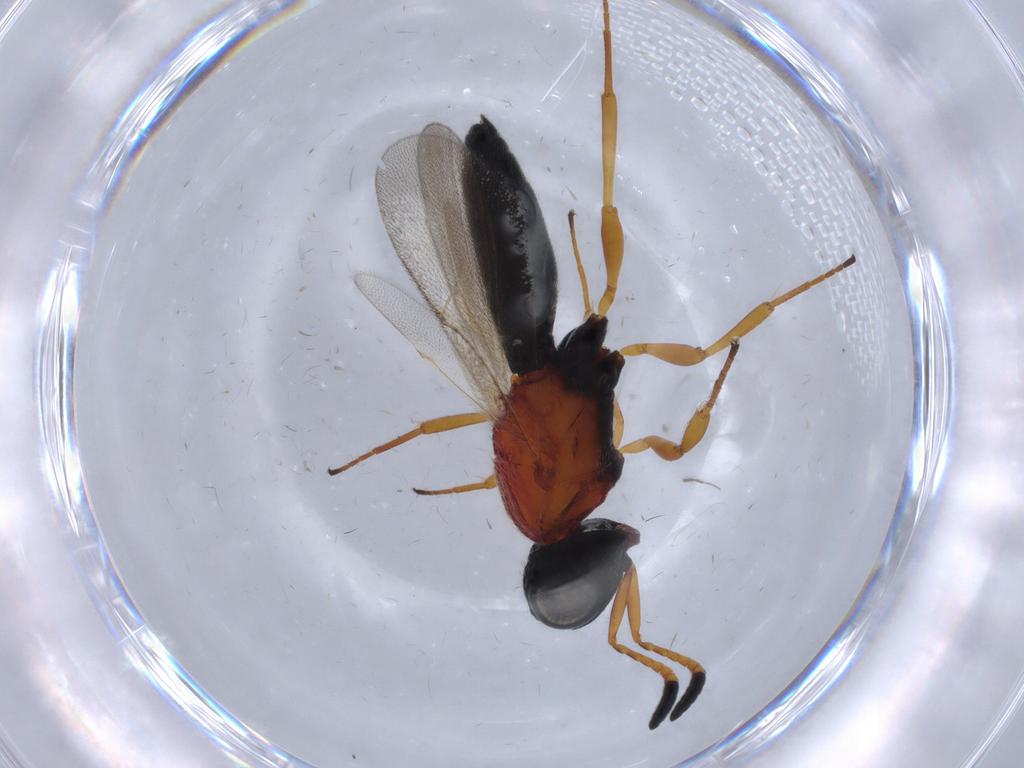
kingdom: Animalia
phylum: Arthropoda
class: Insecta
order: Hymenoptera
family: Scelionidae
